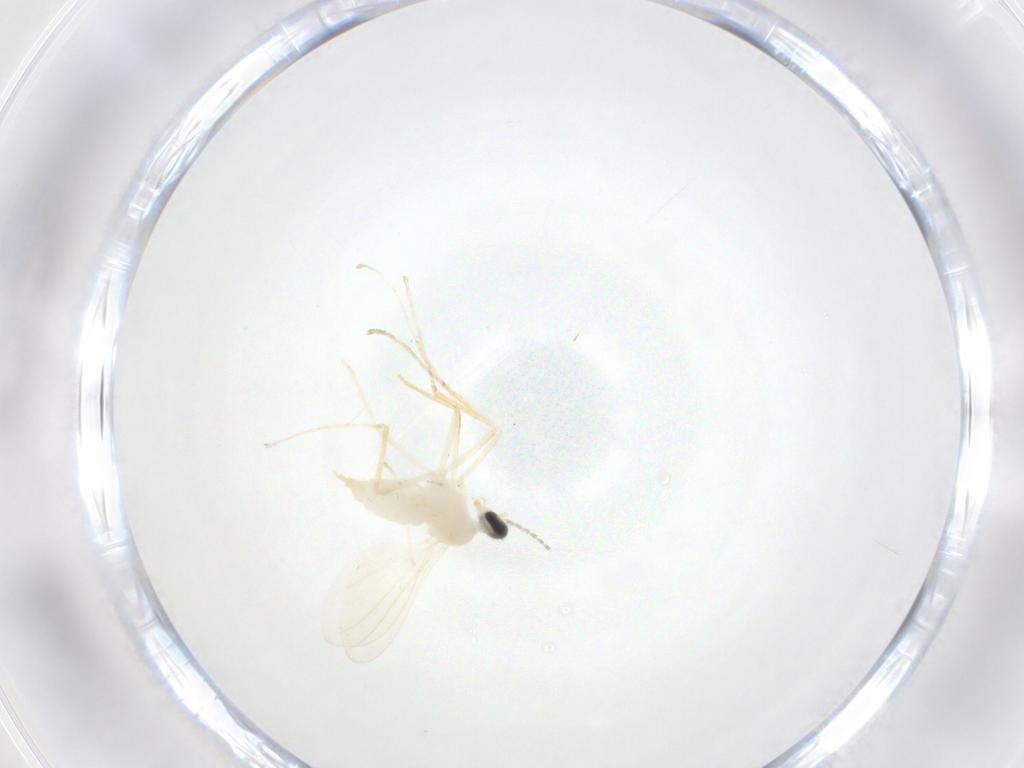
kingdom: Animalia
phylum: Arthropoda
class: Insecta
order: Diptera
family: Cecidomyiidae
